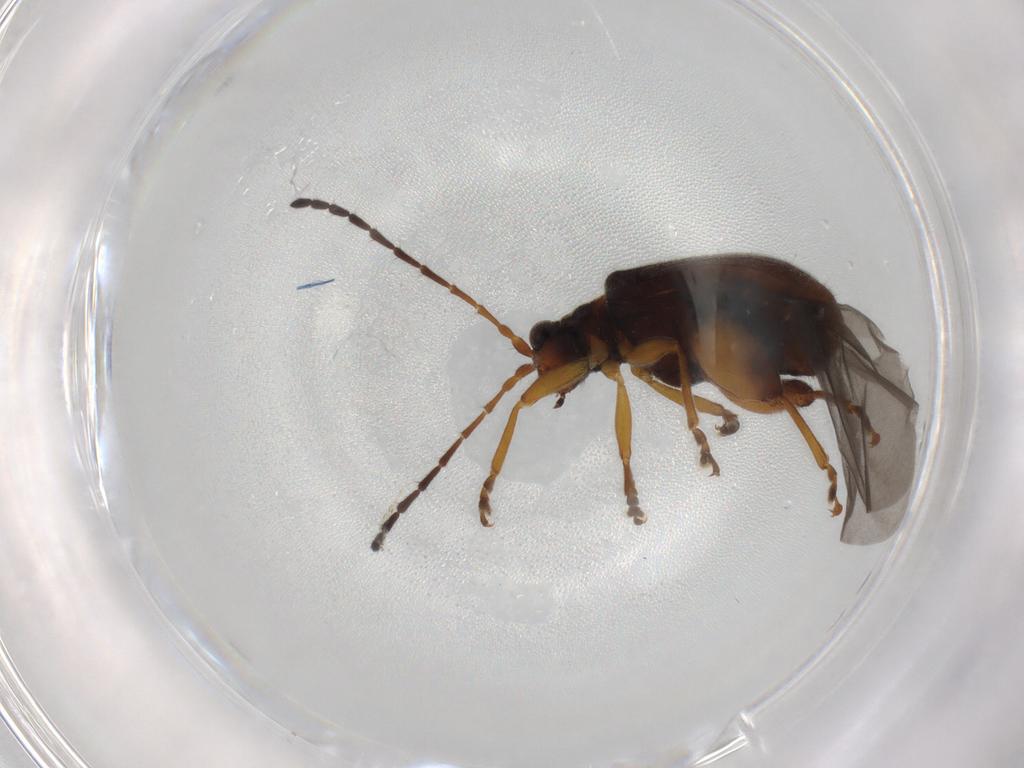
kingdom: Animalia
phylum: Arthropoda
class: Insecta
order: Coleoptera
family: Chrysomelidae
